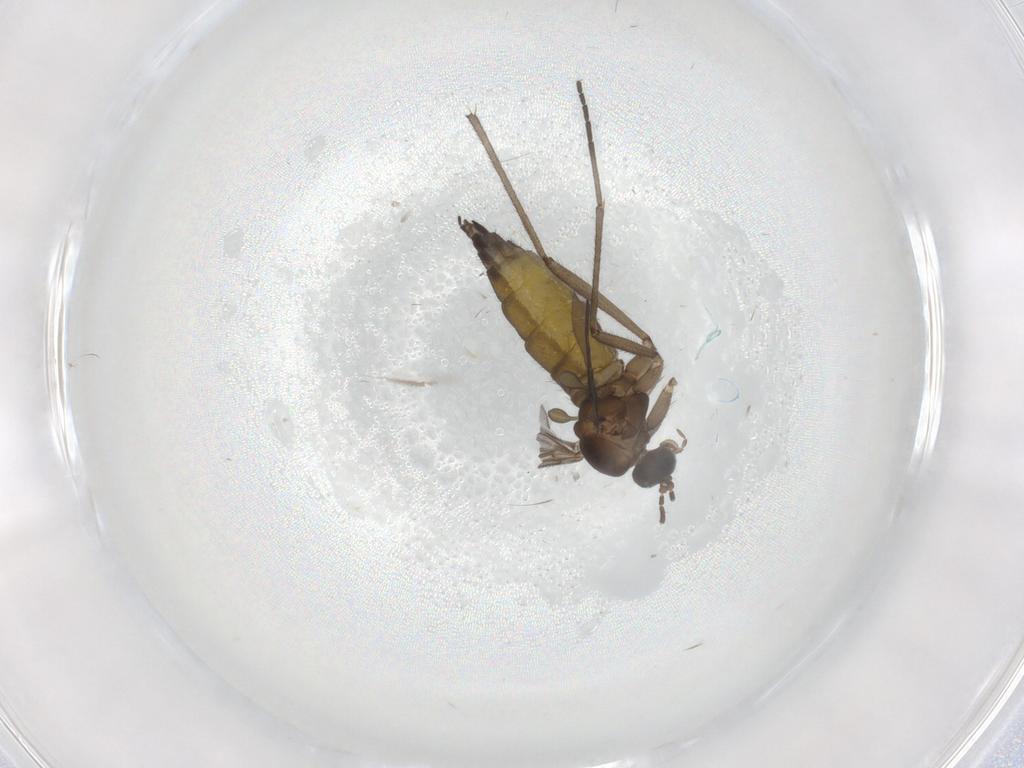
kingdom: Animalia
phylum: Arthropoda
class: Insecta
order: Diptera
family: Sciaridae
